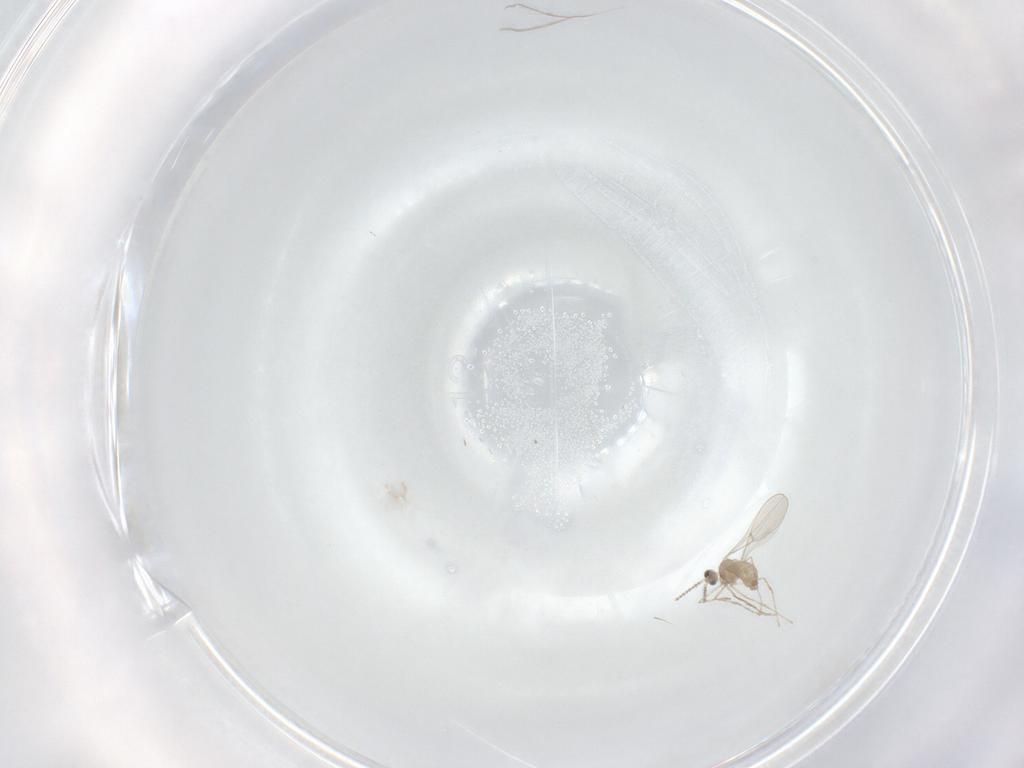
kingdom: Animalia
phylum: Arthropoda
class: Insecta
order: Diptera
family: Cecidomyiidae
